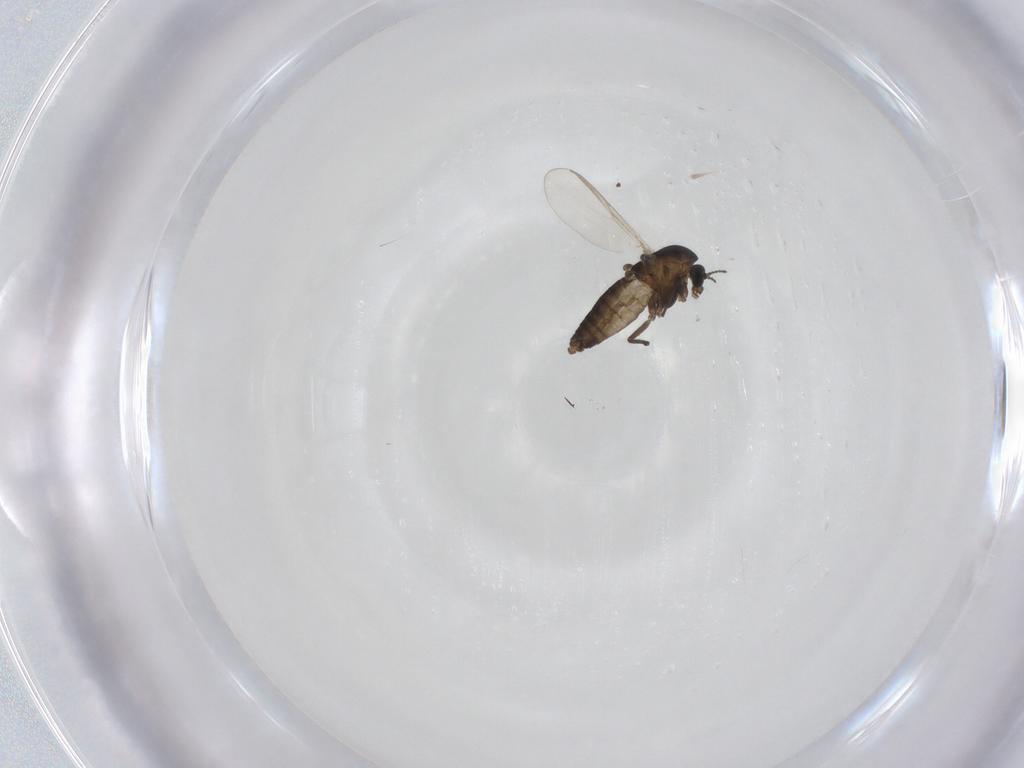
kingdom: Animalia
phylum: Arthropoda
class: Insecta
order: Diptera
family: Chironomidae
